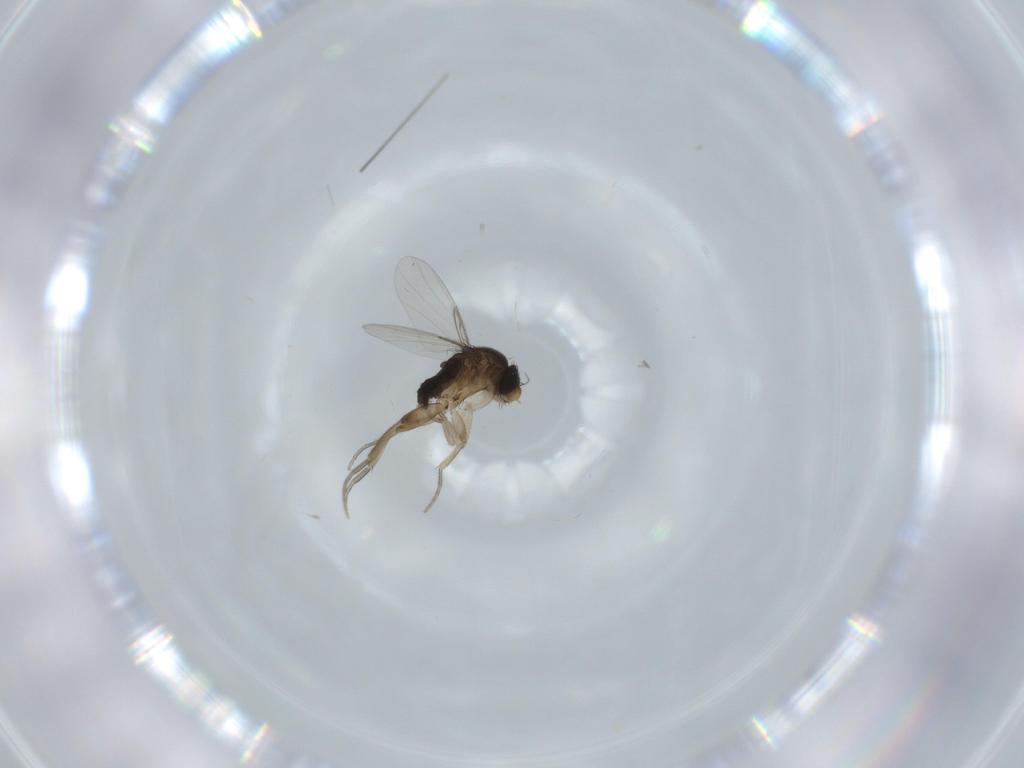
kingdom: Animalia
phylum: Arthropoda
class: Insecta
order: Diptera
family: Phoridae
